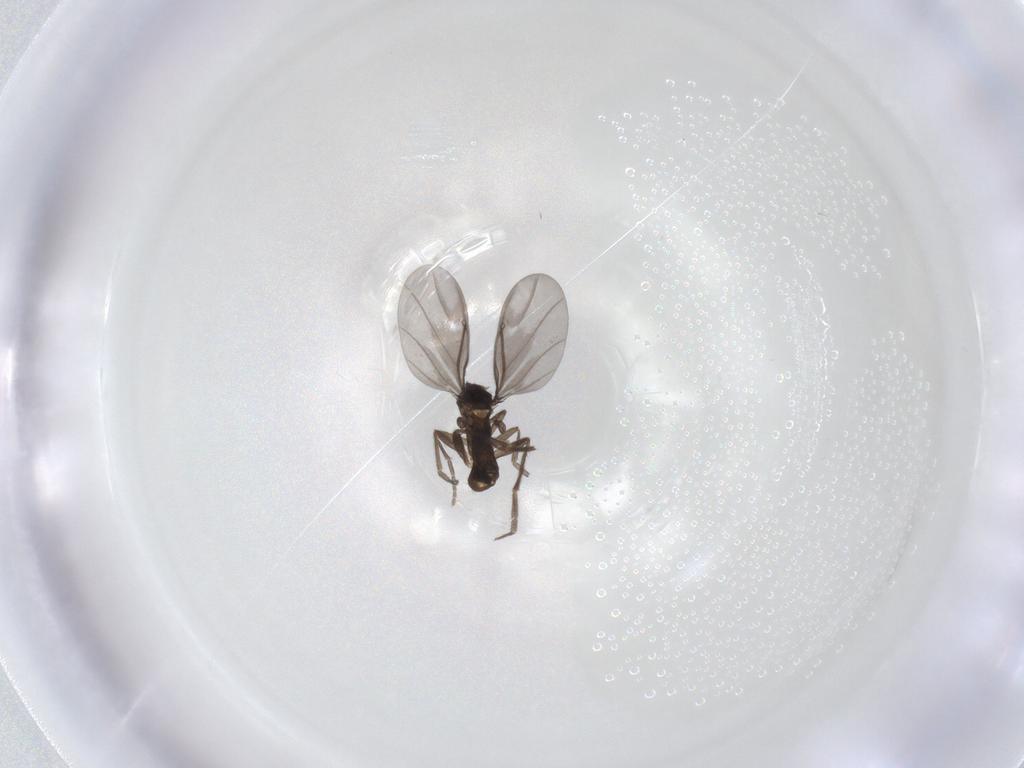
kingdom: Animalia
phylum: Arthropoda
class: Insecta
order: Diptera
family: Phoridae
